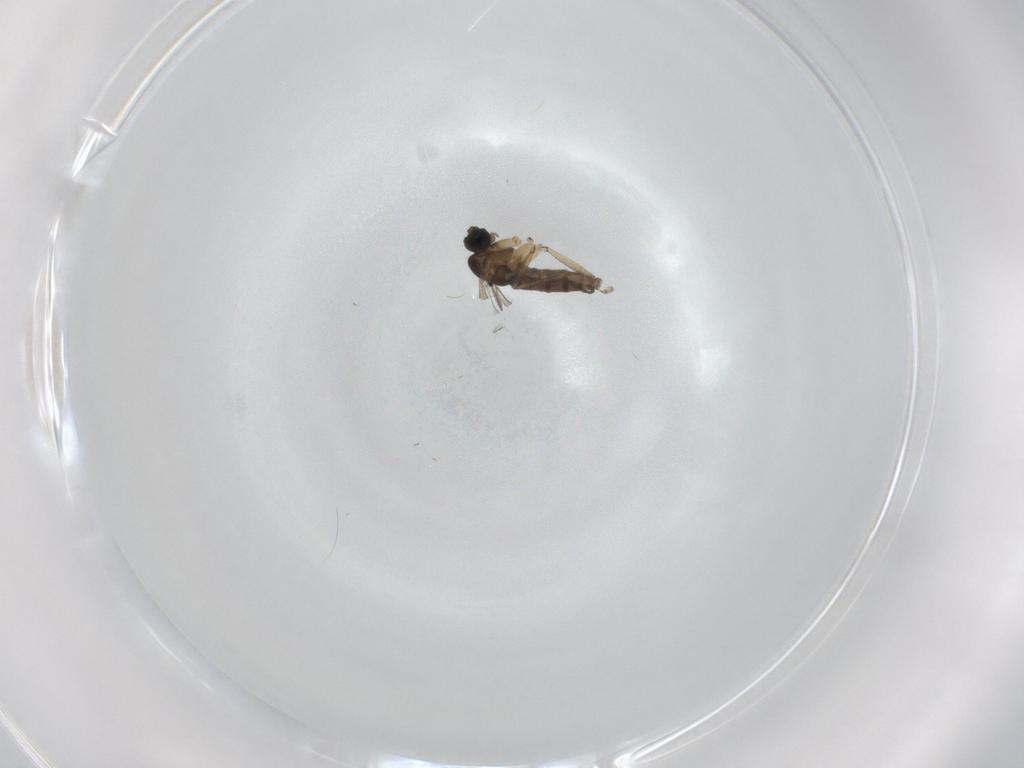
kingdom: Animalia
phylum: Arthropoda
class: Insecta
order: Diptera
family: Sciaridae
